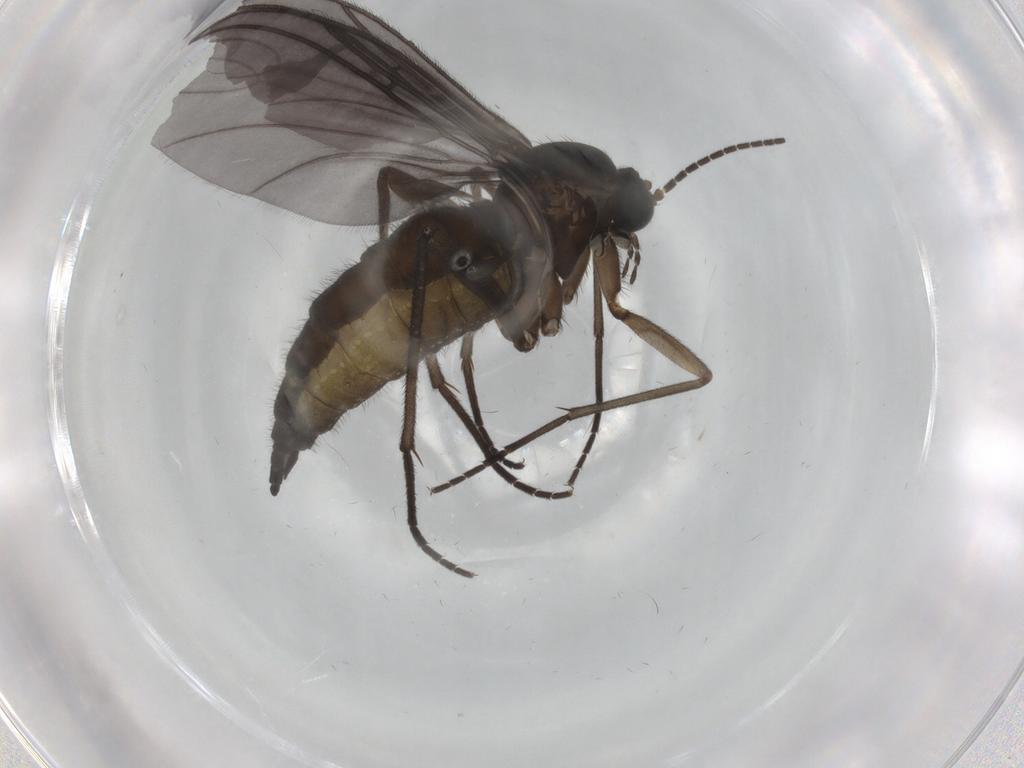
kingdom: Animalia
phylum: Arthropoda
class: Insecta
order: Diptera
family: Sciaridae
